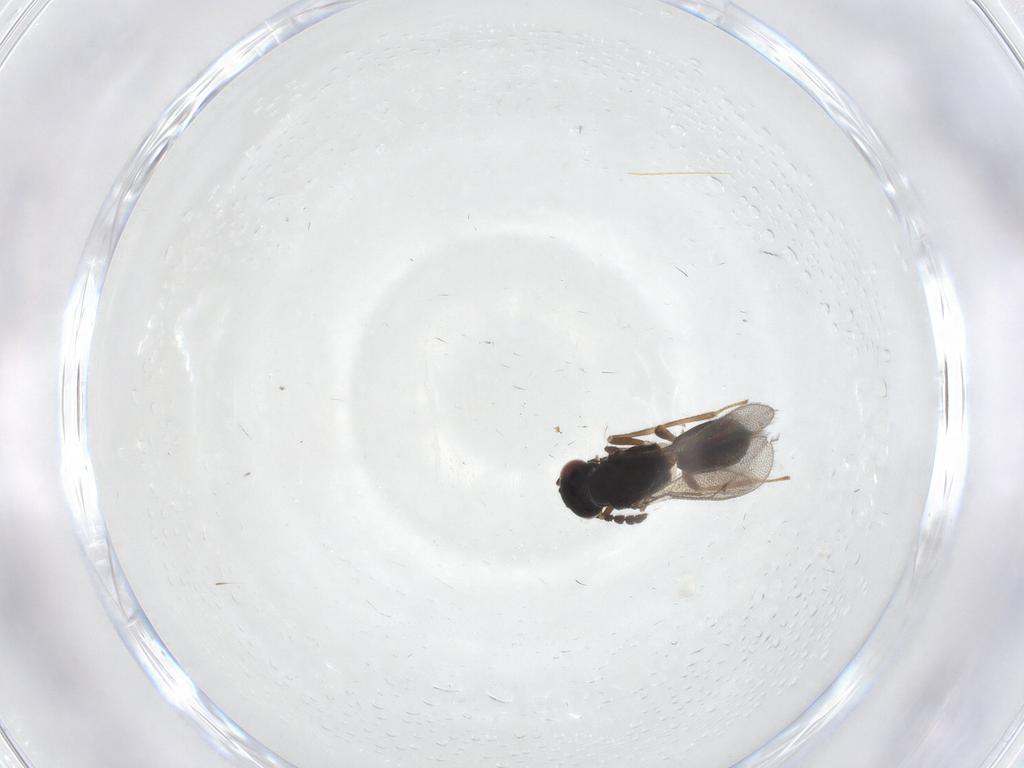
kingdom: Animalia
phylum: Arthropoda
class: Insecta
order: Hymenoptera
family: Eulophidae
